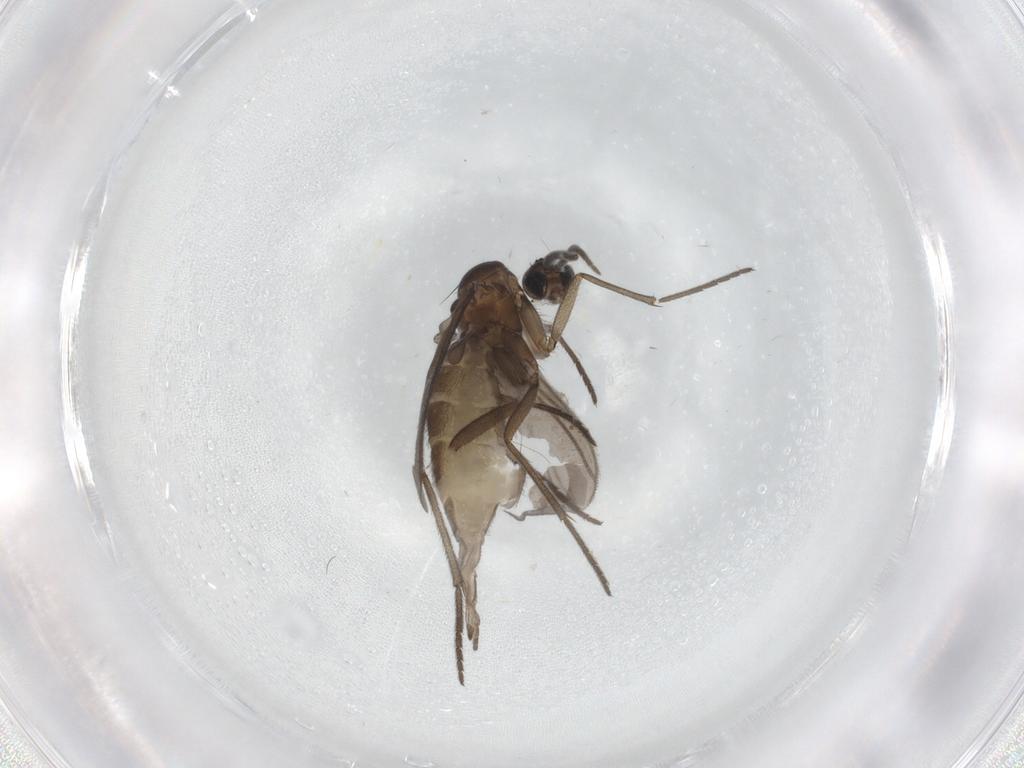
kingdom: Animalia
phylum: Arthropoda
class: Insecta
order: Diptera
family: Sciaridae
